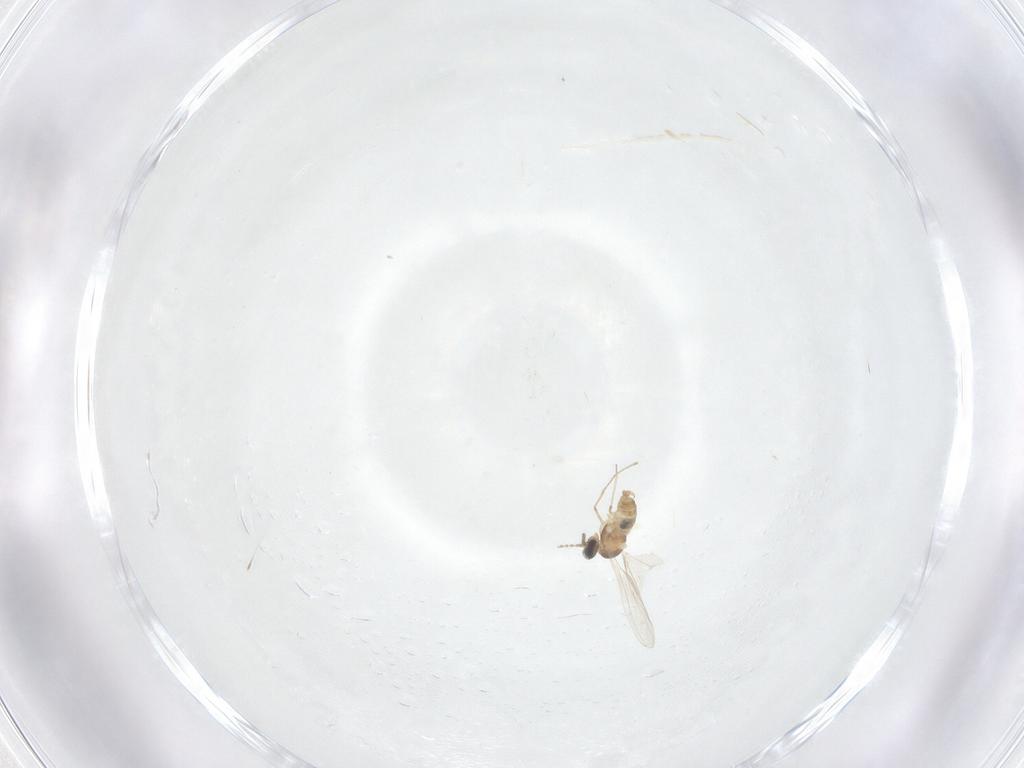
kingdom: Animalia
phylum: Arthropoda
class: Insecta
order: Diptera
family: Cecidomyiidae
